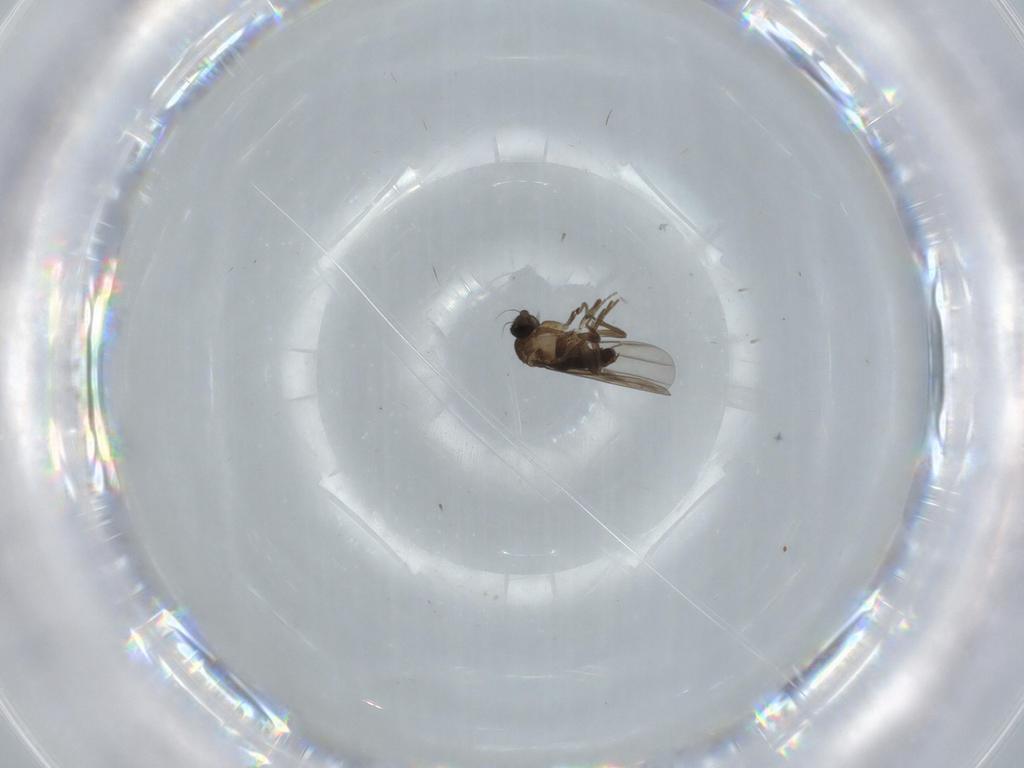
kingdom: Animalia
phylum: Arthropoda
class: Insecta
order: Diptera
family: Phoridae
